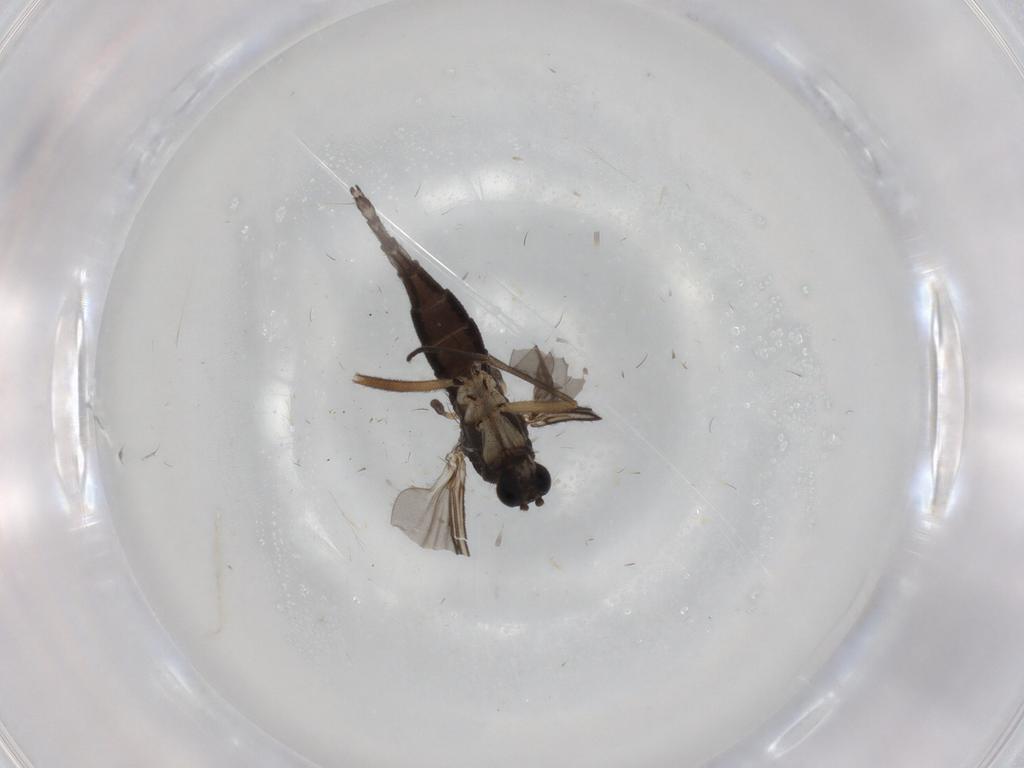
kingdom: Animalia
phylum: Arthropoda
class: Insecta
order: Diptera
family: Sciaridae
